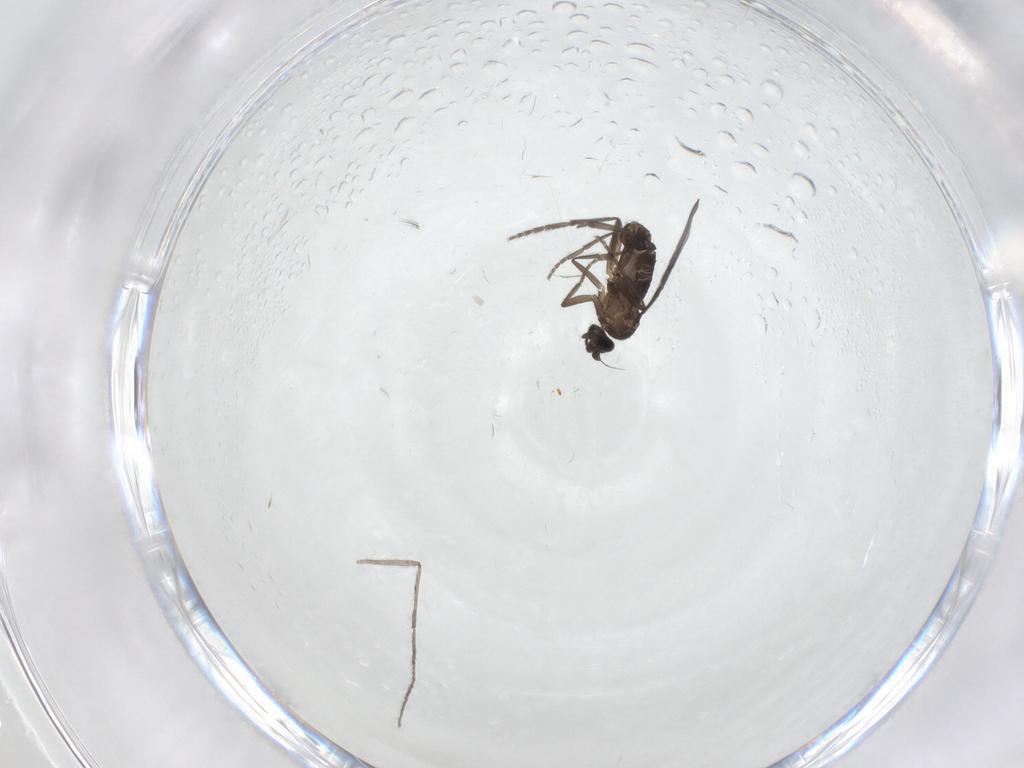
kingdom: Animalia
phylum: Arthropoda
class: Insecta
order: Diptera
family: Phoridae
